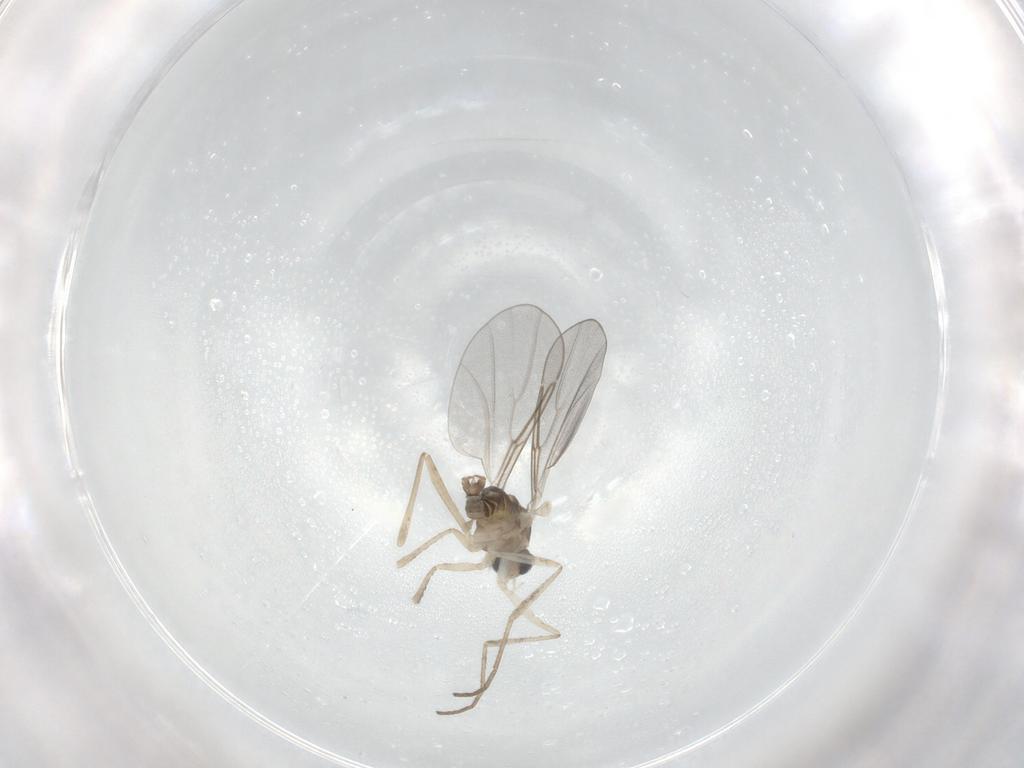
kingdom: Animalia
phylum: Arthropoda
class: Insecta
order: Diptera
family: Cecidomyiidae
